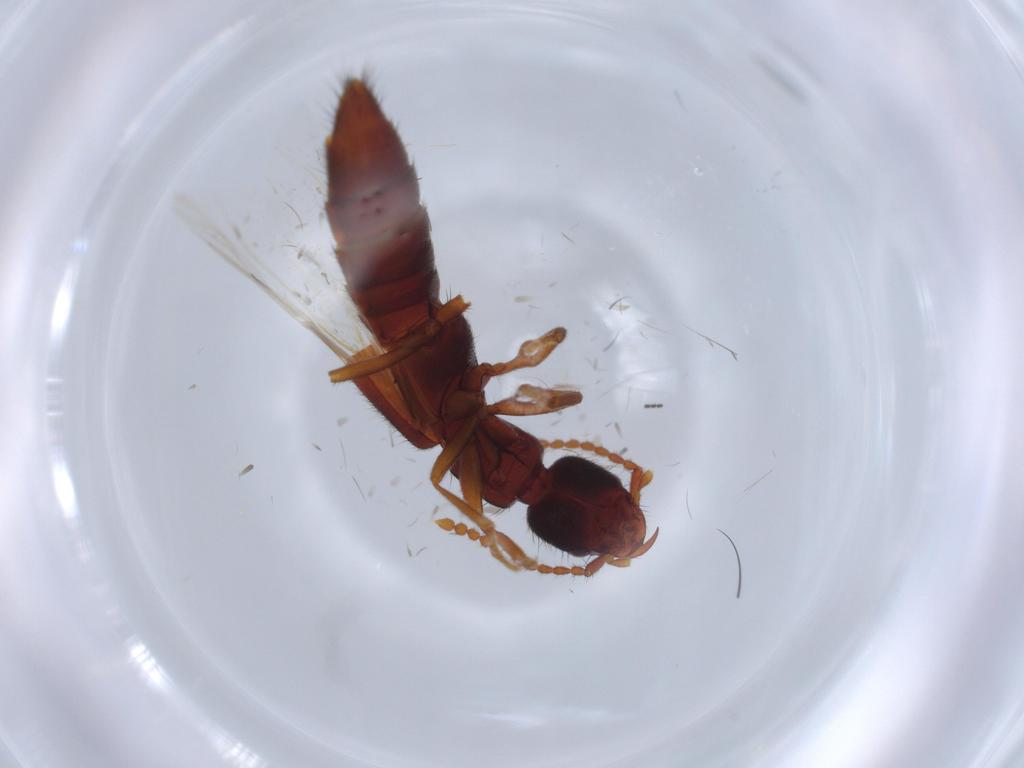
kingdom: Animalia
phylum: Arthropoda
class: Insecta
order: Coleoptera
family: Staphylinidae
